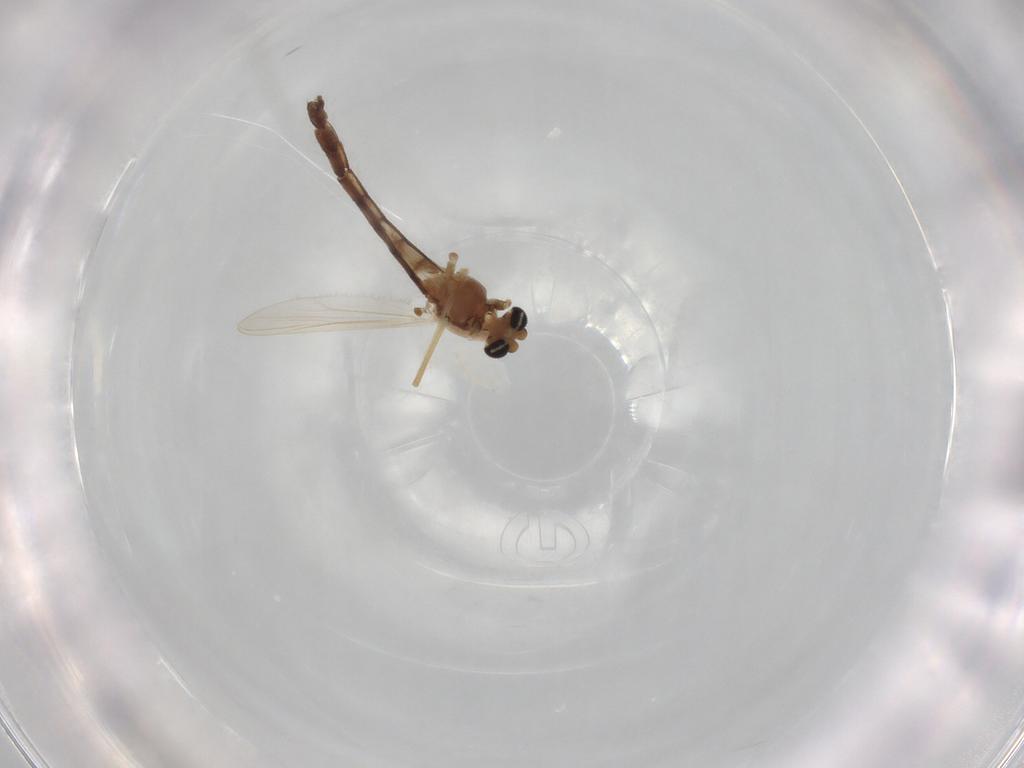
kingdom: Animalia
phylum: Arthropoda
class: Insecta
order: Diptera
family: Chironomidae
